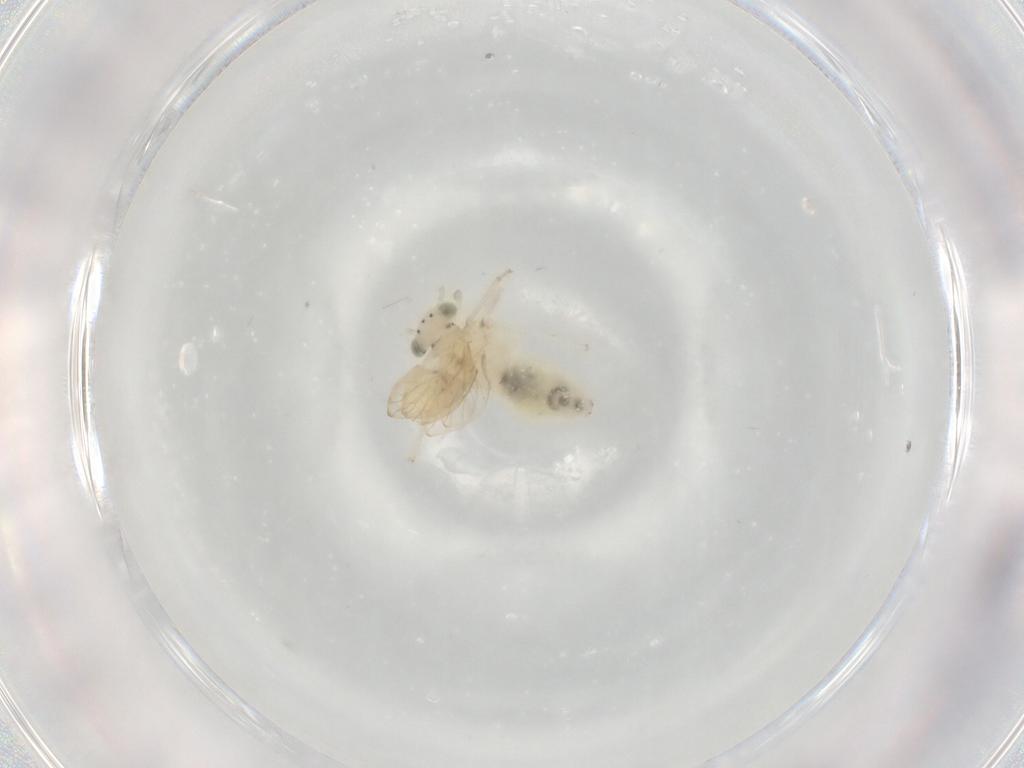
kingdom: Animalia
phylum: Arthropoda
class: Insecta
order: Psocodea
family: Lepidopsocidae
